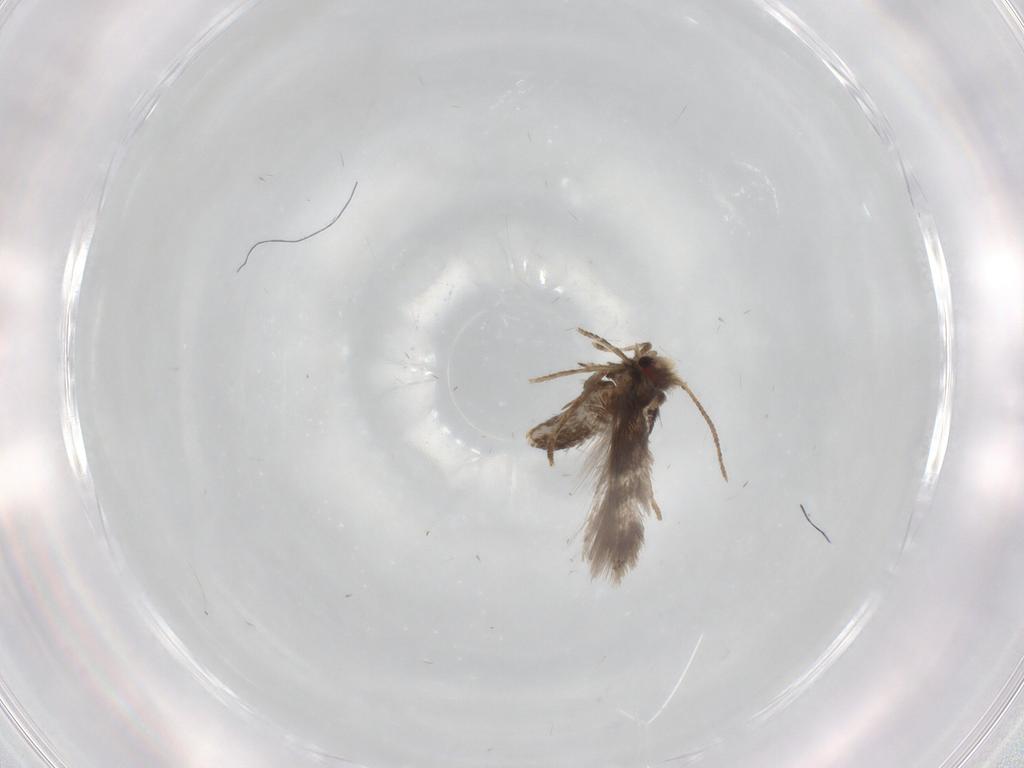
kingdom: Animalia
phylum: Arthropoda
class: Insecta
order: Lepidoptera
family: Nepticulidae
